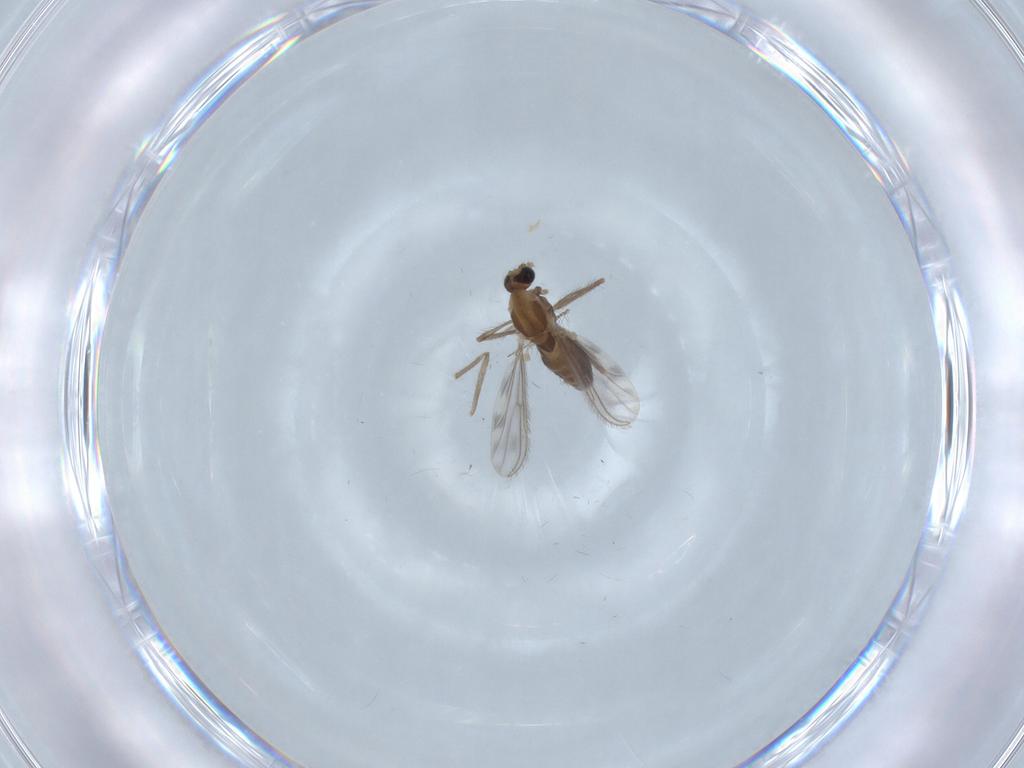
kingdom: Animalia
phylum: Arthropoda
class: Insecta
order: Diptera
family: Chironomidae
